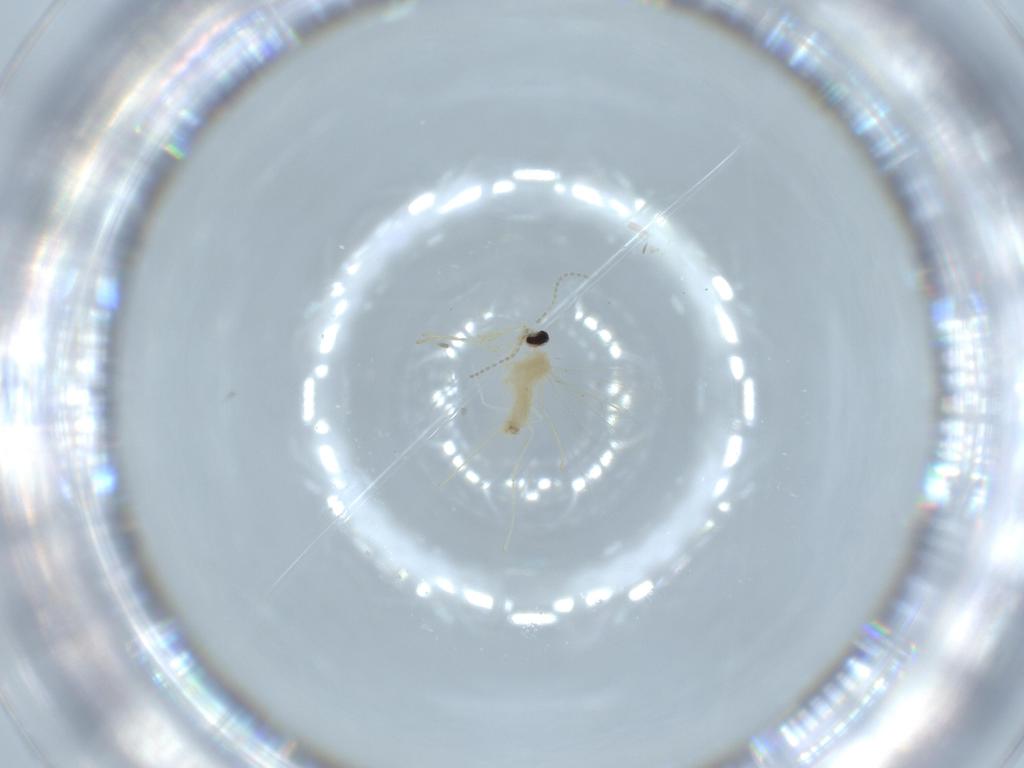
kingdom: Animalia
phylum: Arthropoda
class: Insecta
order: Diptera
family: Cecidomyiidae
